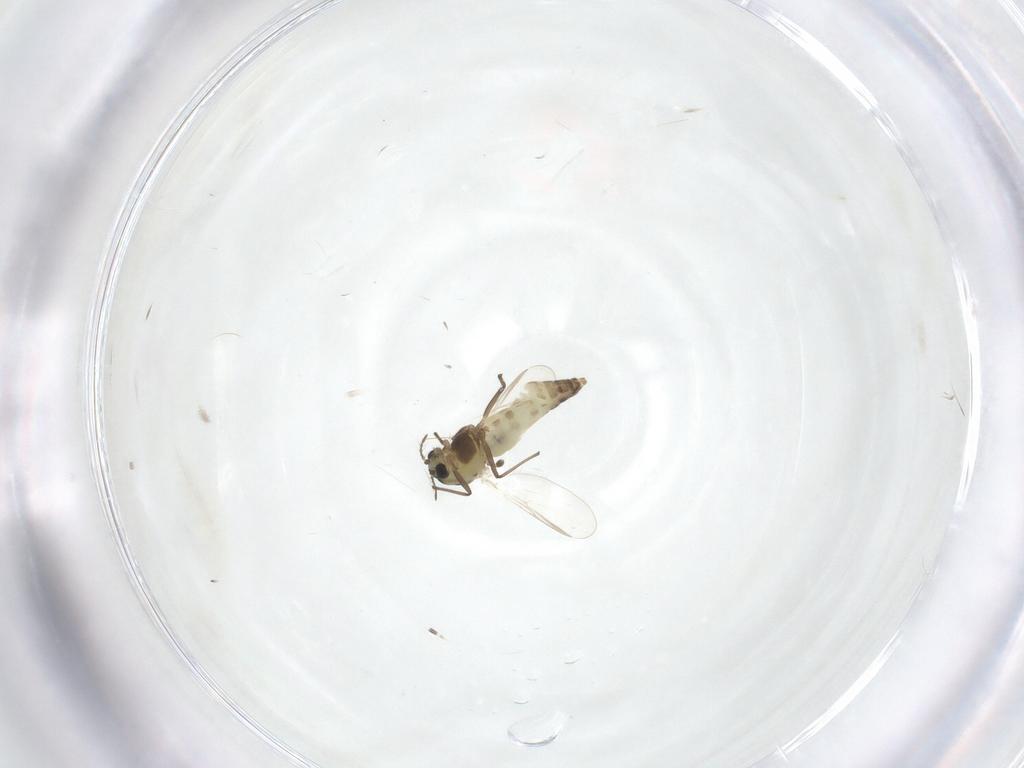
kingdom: Animalia
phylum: Arthropoda
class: Insecta
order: Diptera
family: Chironomidae
